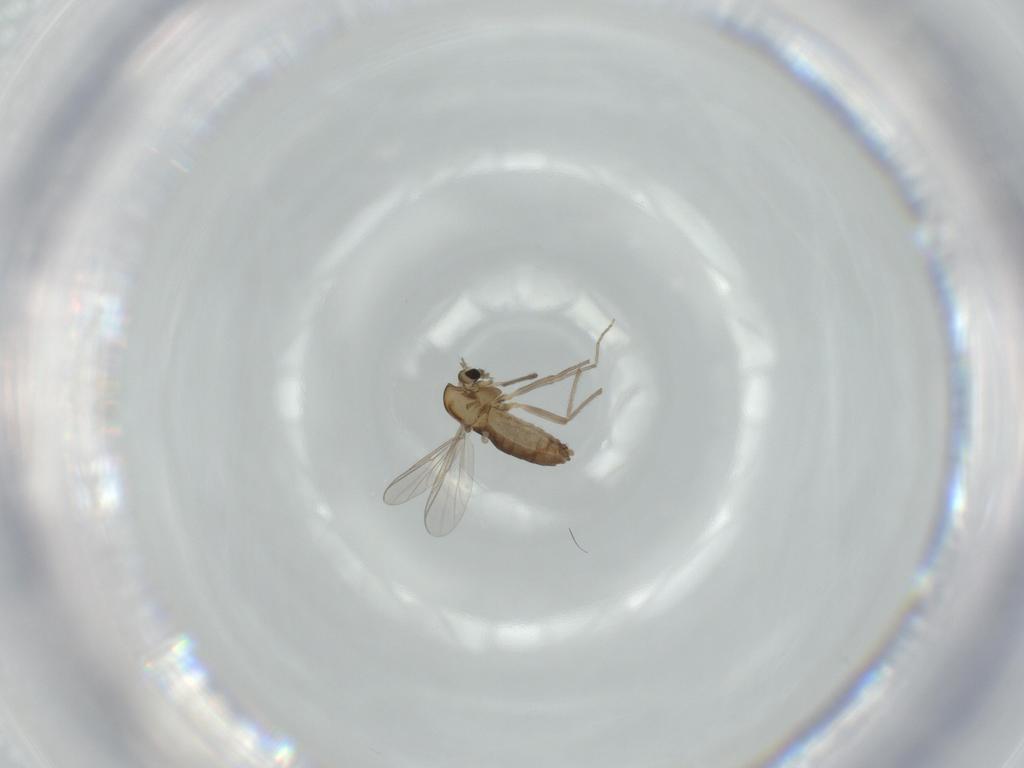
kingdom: Animalia
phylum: Arthropoda
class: Insecta
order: Diptera
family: Chironomidae
